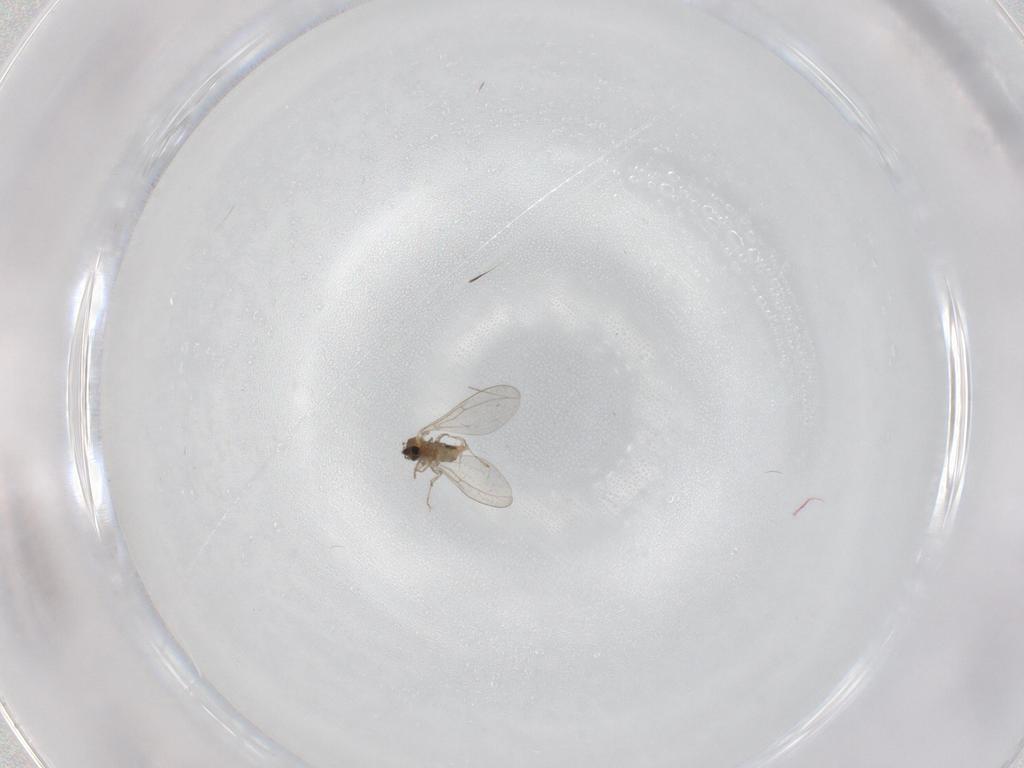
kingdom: Animalia
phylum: Arthropoda
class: Insecta
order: Diptera
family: Cecidomyiidae
